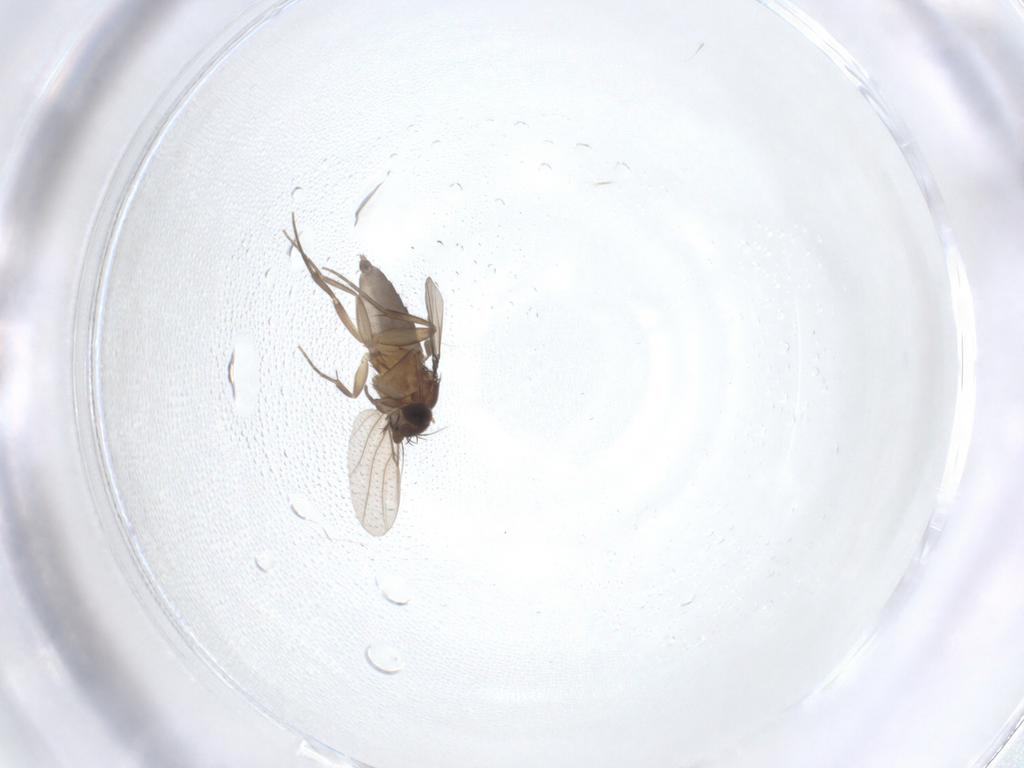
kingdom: Animalia
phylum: Arthropoda
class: Insecta
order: Diptera
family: Phoridae
